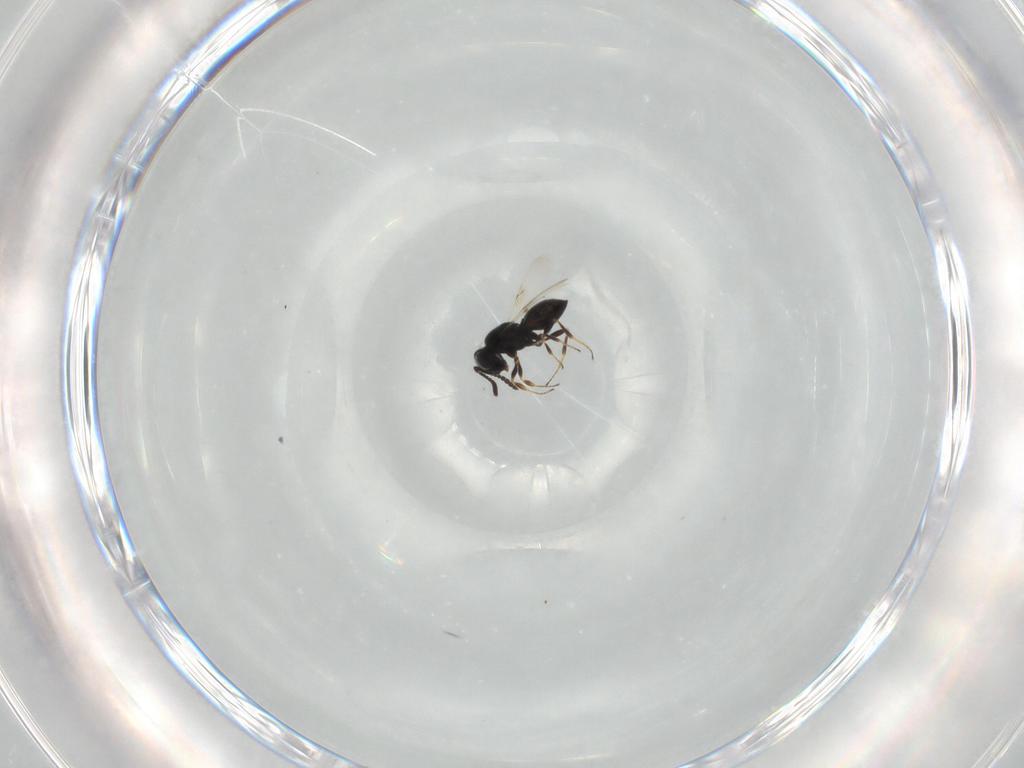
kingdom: Animalia
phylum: Arthropoda
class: Insecta
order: Hymenoptera
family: Scelionidae
